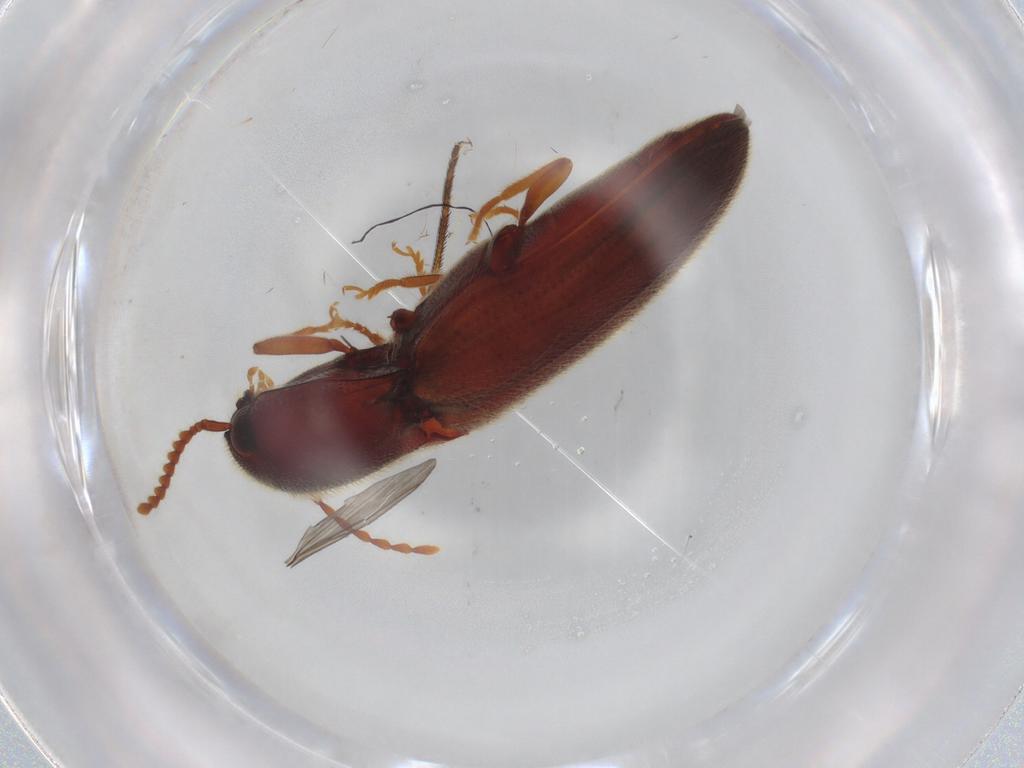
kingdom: Animalia
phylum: Arthropoda
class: Insecta
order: Coleoptera
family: Elateridae
